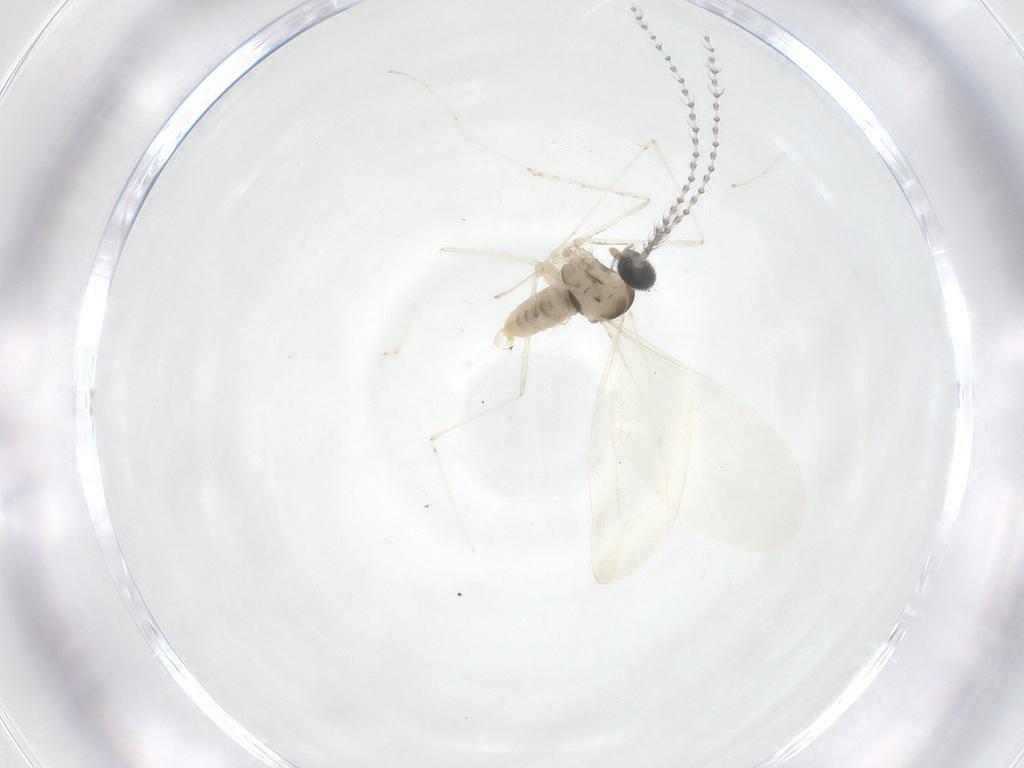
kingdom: Animalia
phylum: Arthropoda
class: Insecta
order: Diptera
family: Cecidomyiidae
